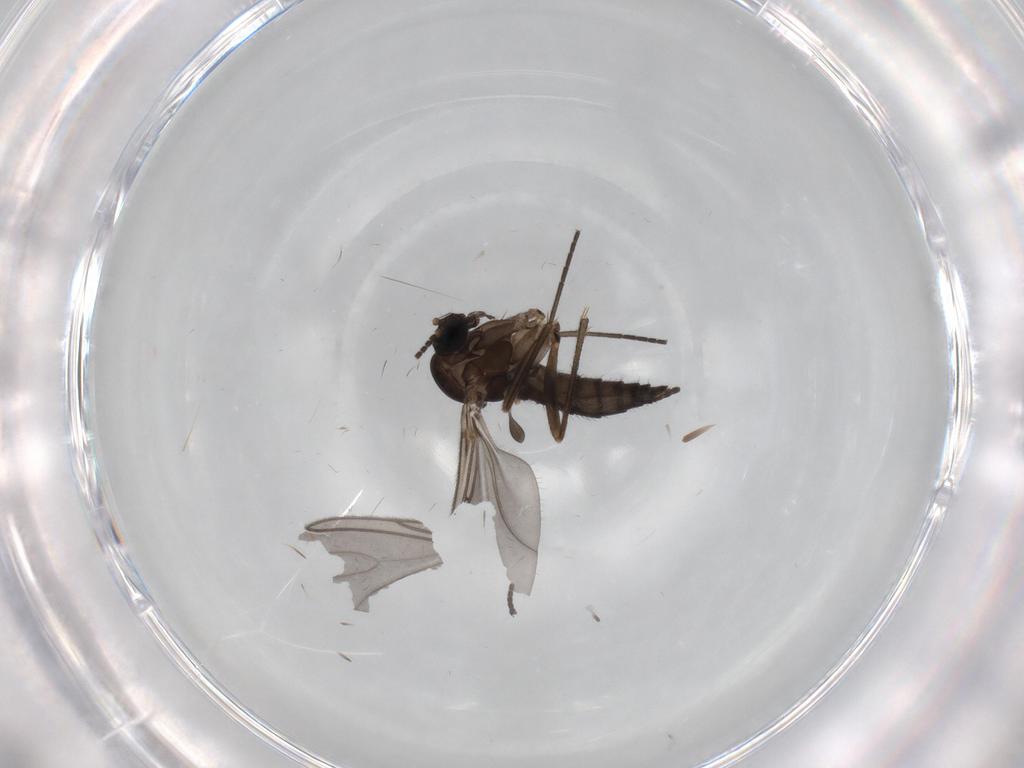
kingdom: Animalia
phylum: Arthropoda
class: Insecta
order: Diptera
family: Sciaridae
